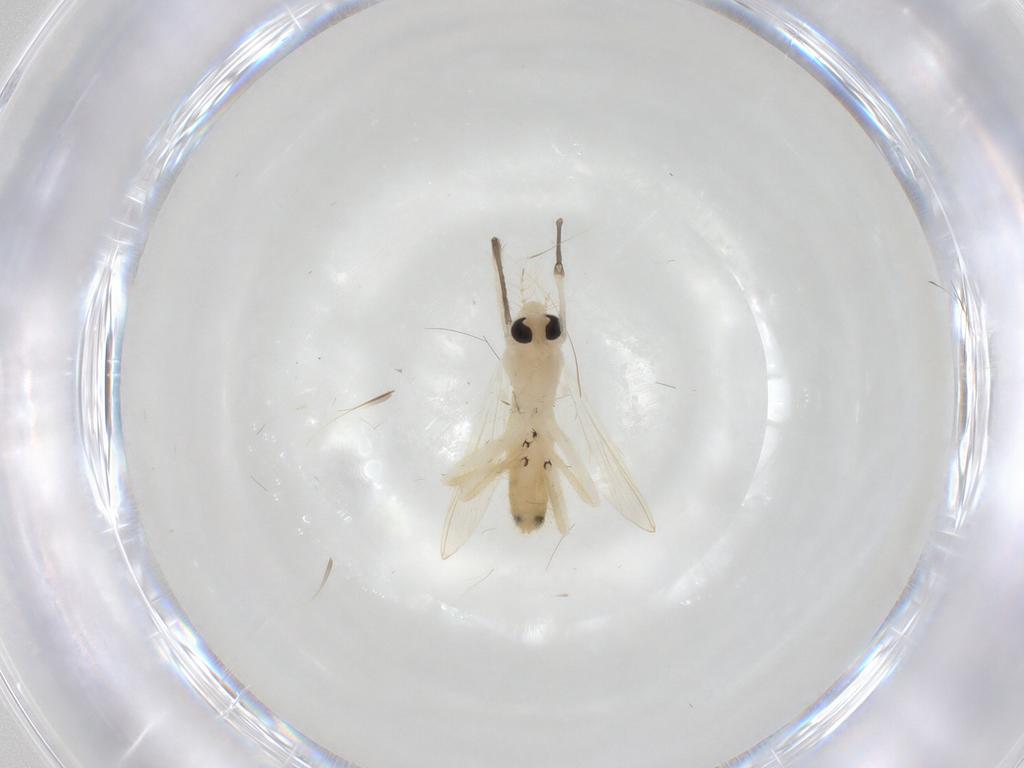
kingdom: Animalia
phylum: Arthropoda
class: Insecta
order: Diptera
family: Chironomidae
